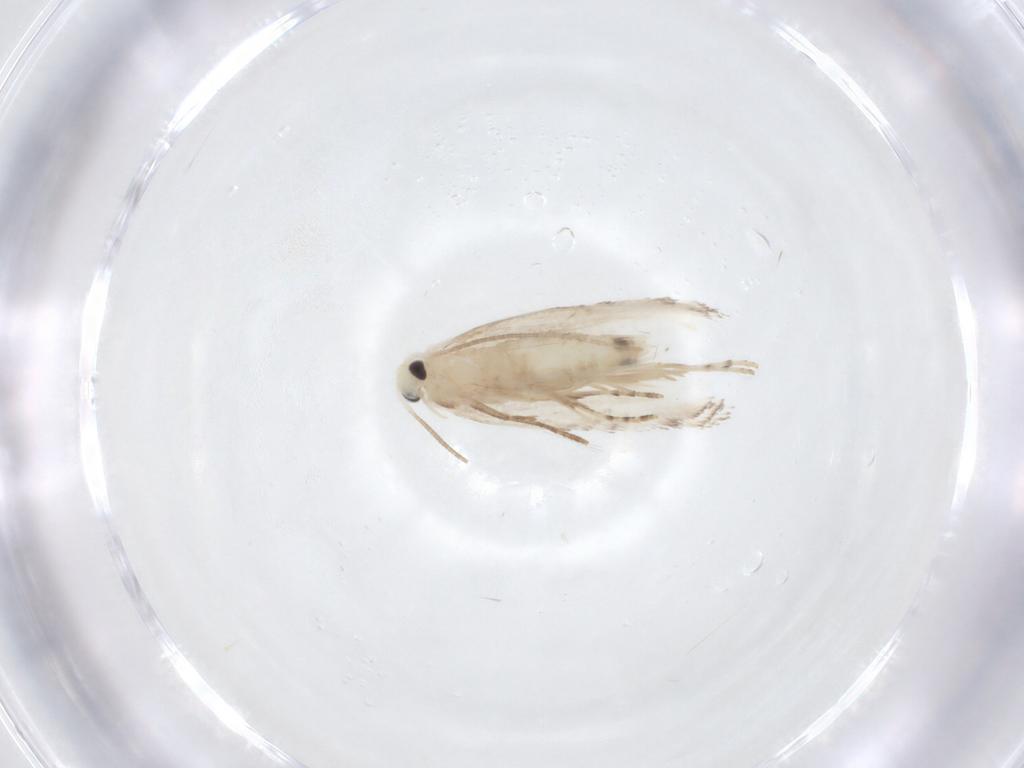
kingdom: Animalia
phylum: Arthropoda
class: Insecta
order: Lepidoptera
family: Lyonetiidae
